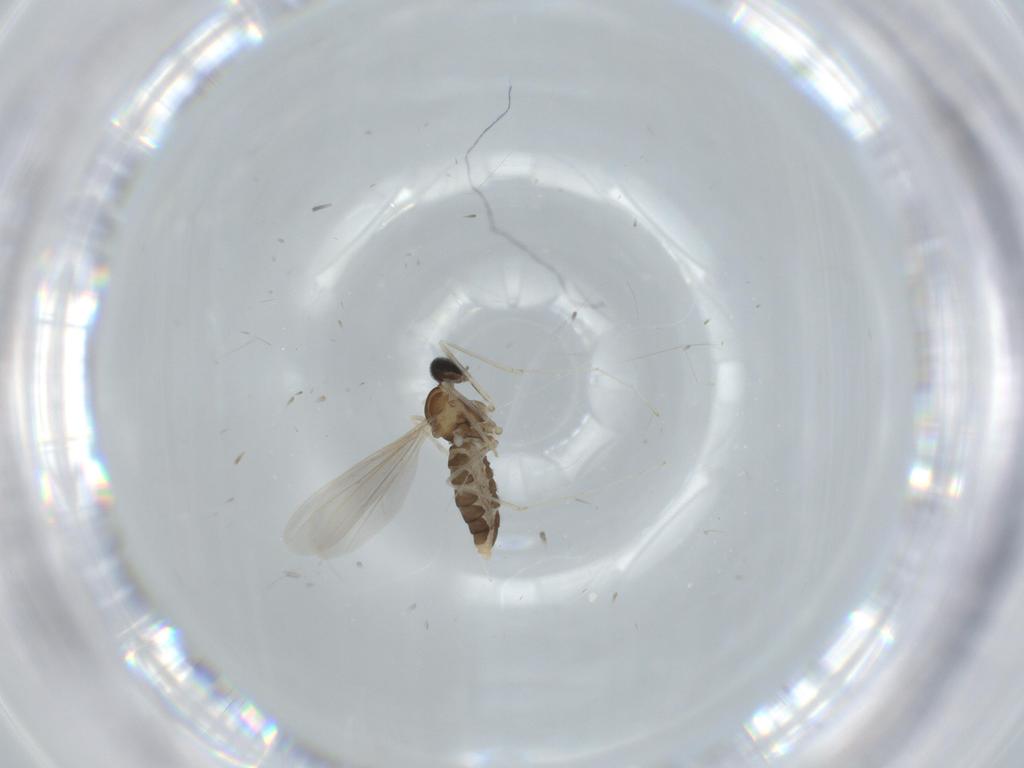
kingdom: Animalia
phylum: Arthropoda
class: Insecta
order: Diptera
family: Cecidomyiidae
